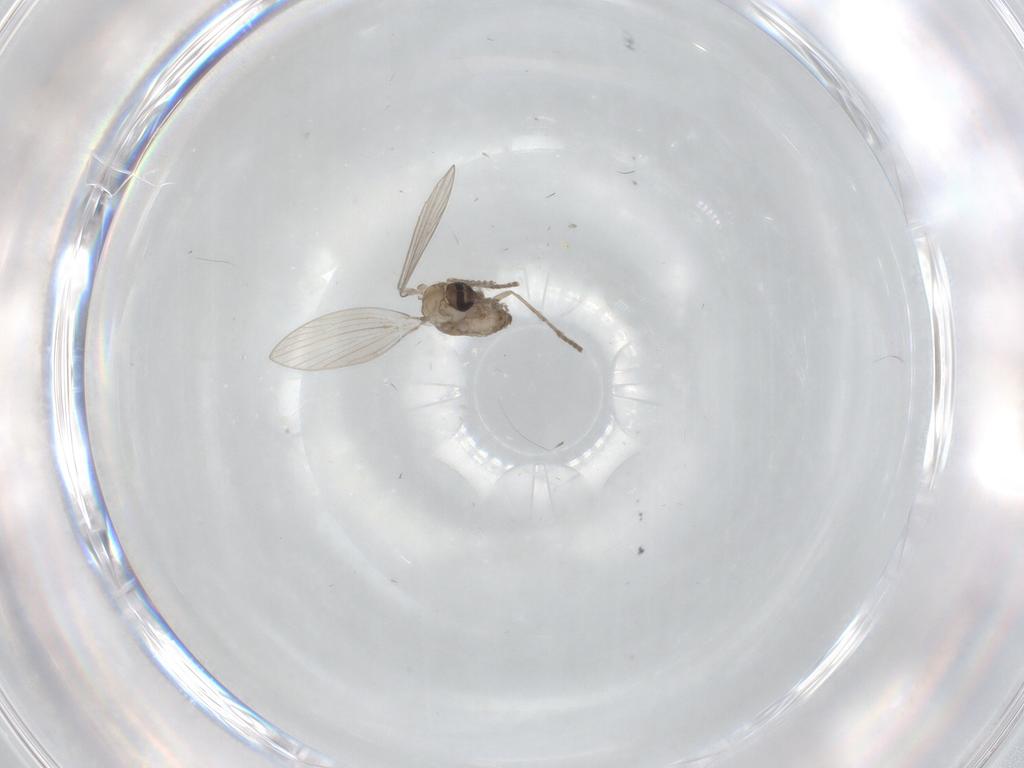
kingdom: Animalia
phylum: Arthropoda
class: Insecta
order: Diptera
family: Psychodidae
